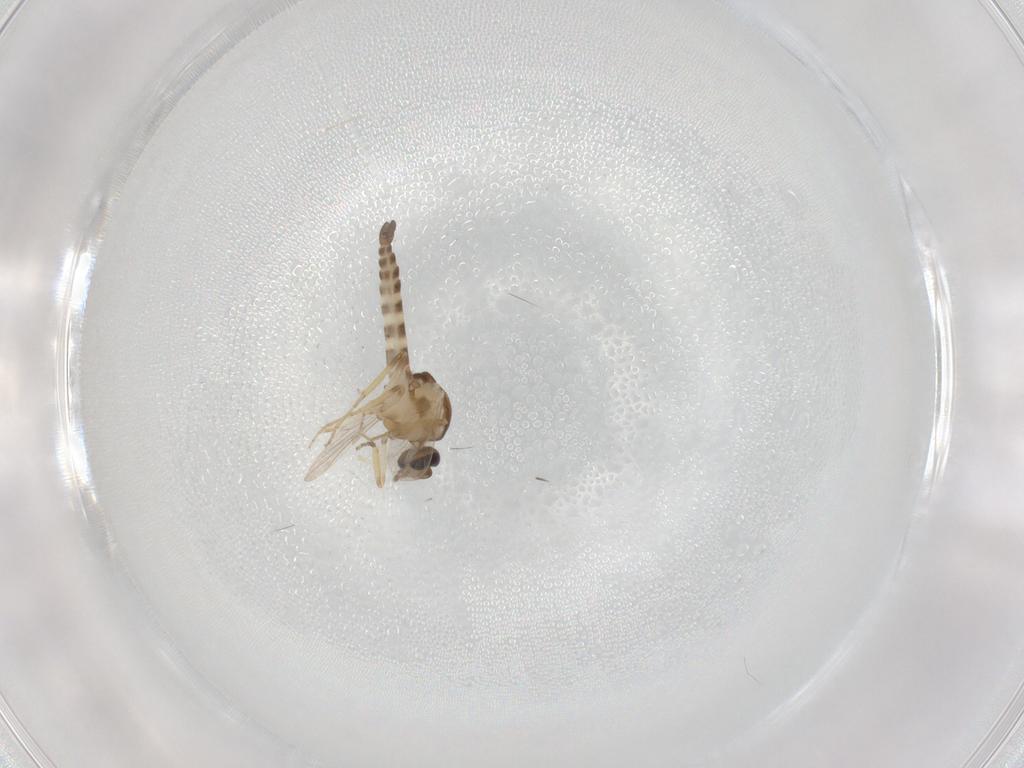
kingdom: Animalia
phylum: Arthropoda
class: Insecta
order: Diptera
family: Ceratopogonidae
